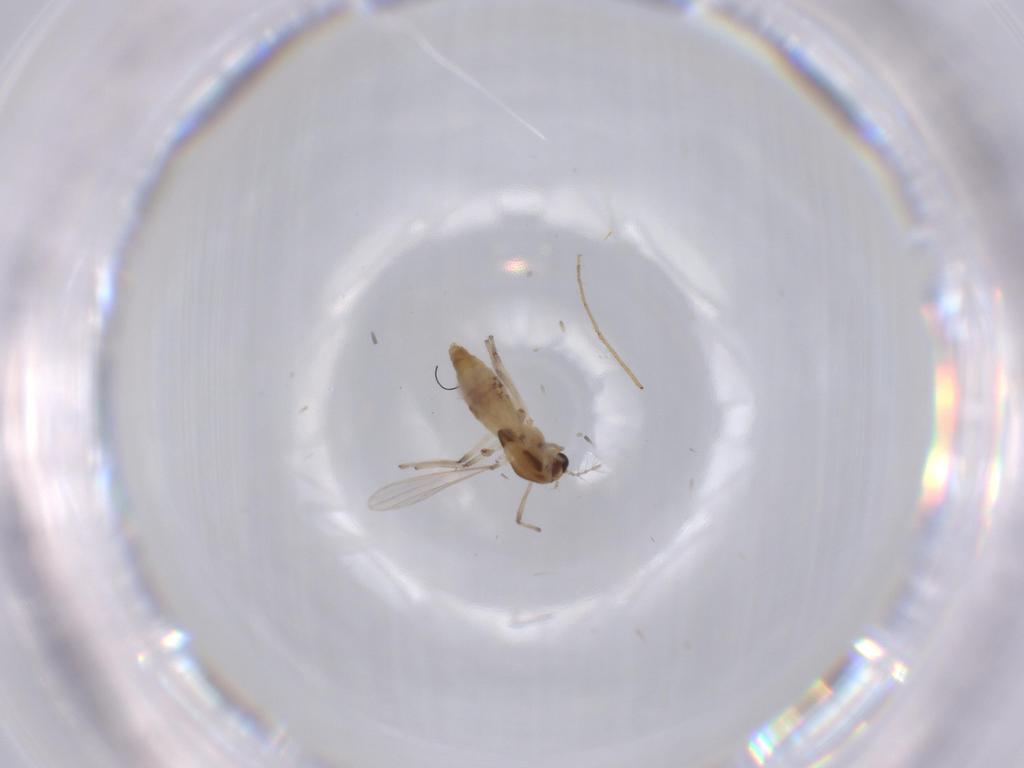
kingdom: Animalia
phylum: Arthropoda
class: Insecta
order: Diptera
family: Chironomidae
